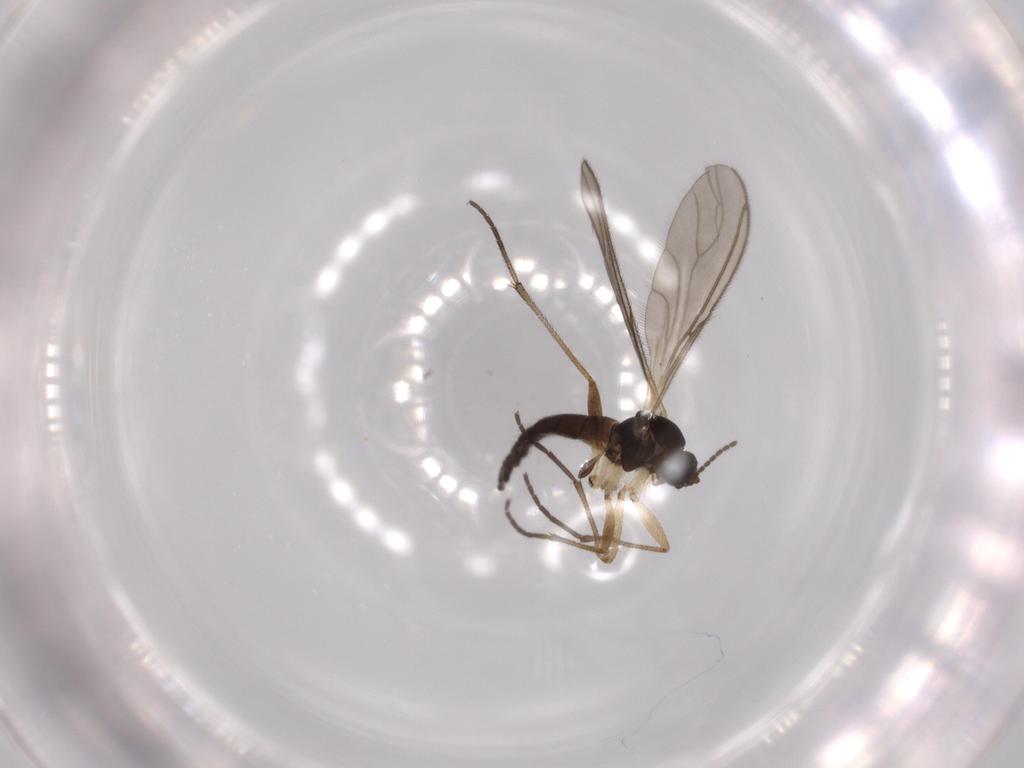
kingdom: Animalia
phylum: Arthropoda
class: Insecta
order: Diptera
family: Sciaridae
